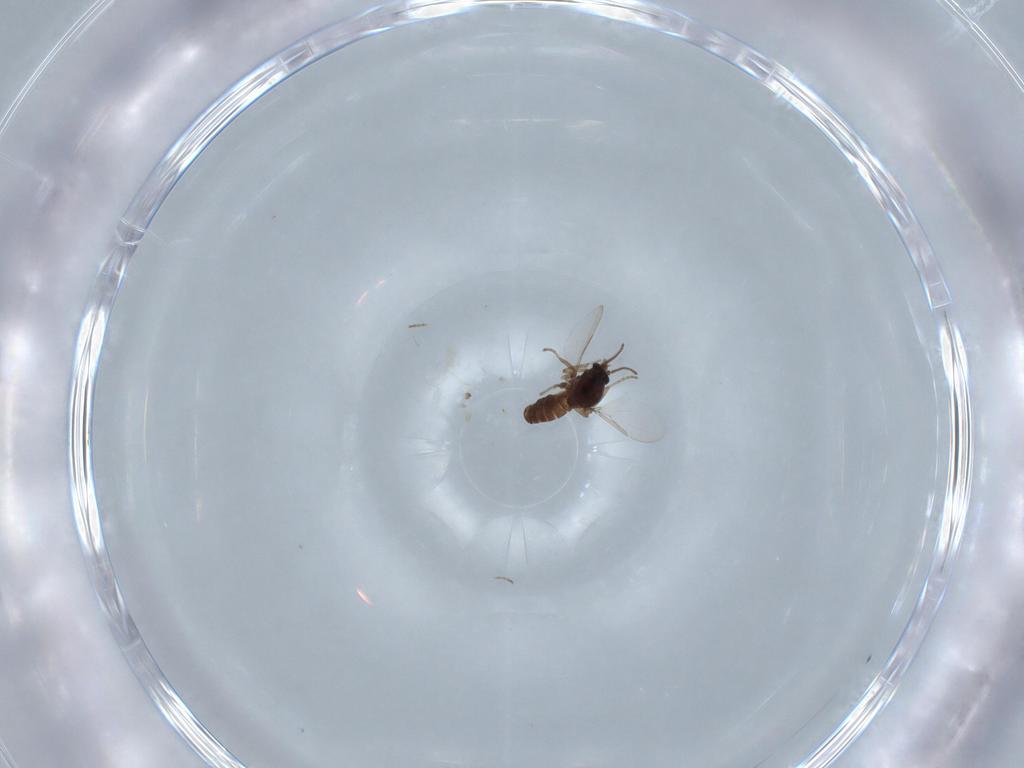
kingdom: Animalia
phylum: Arthropoda
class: Insecta
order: Diptera
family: Ceratopogonidae
